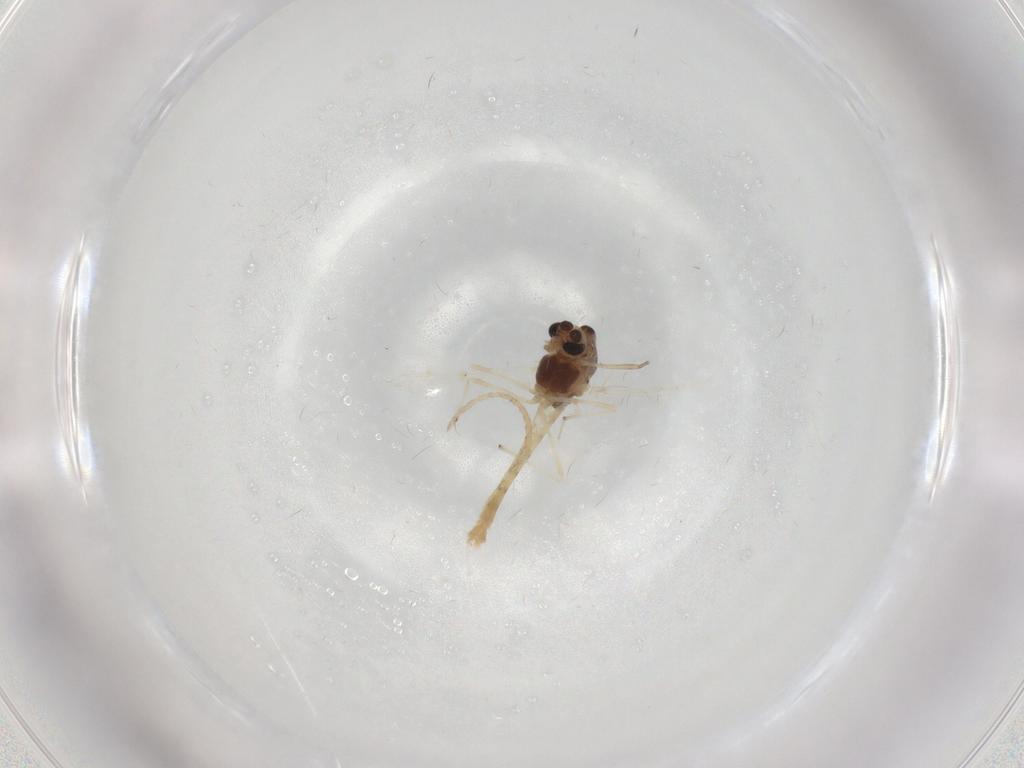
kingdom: Animalia
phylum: Arthropoda
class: Insecta
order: Diptera
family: Chironomidae
